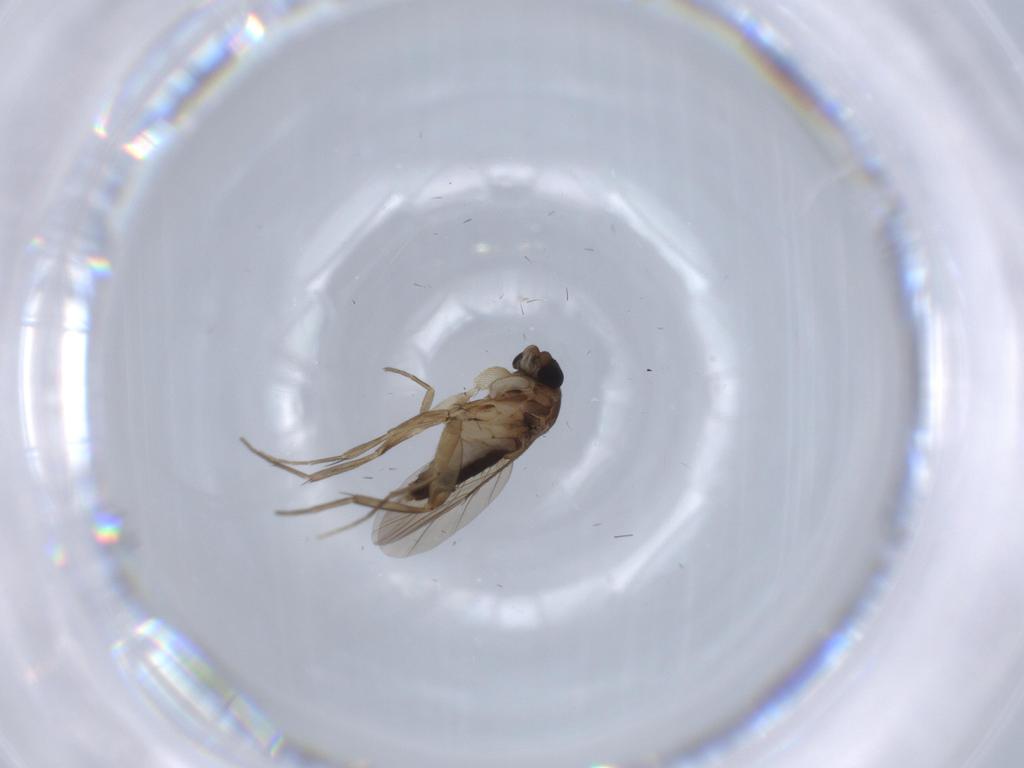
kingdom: Animalia
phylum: Arthropoda
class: Insecta
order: Diptera
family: Phoridae
